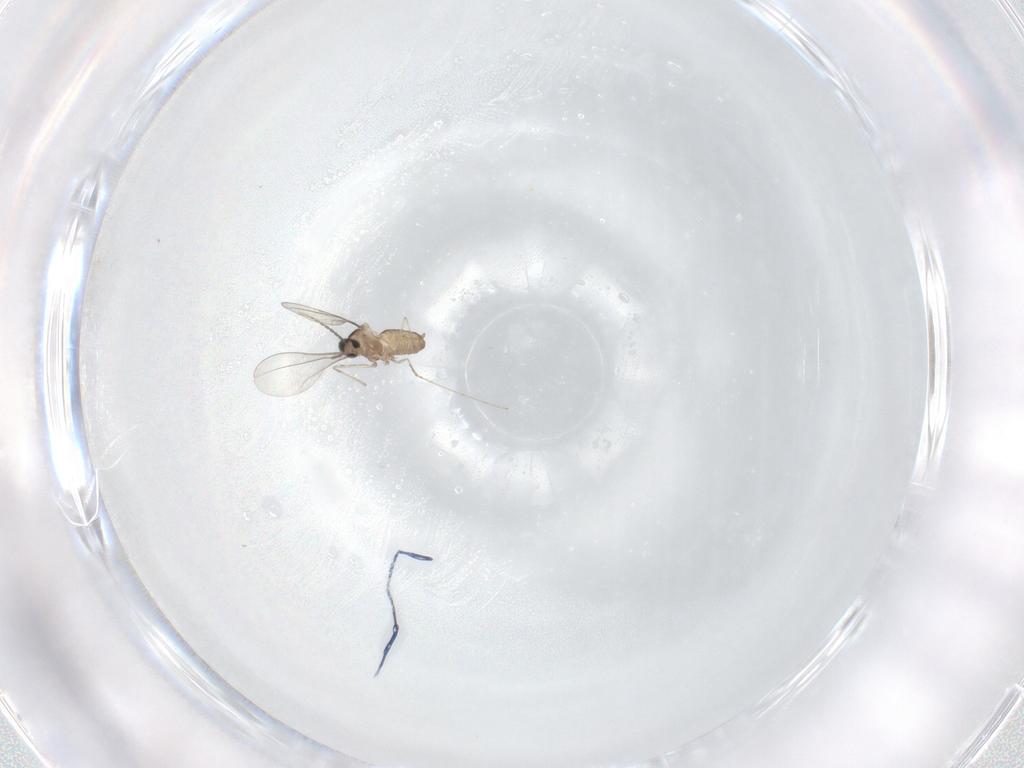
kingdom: Animalia
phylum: Arthropoda
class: Insecta
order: Diptera
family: Cecidomyiidae
